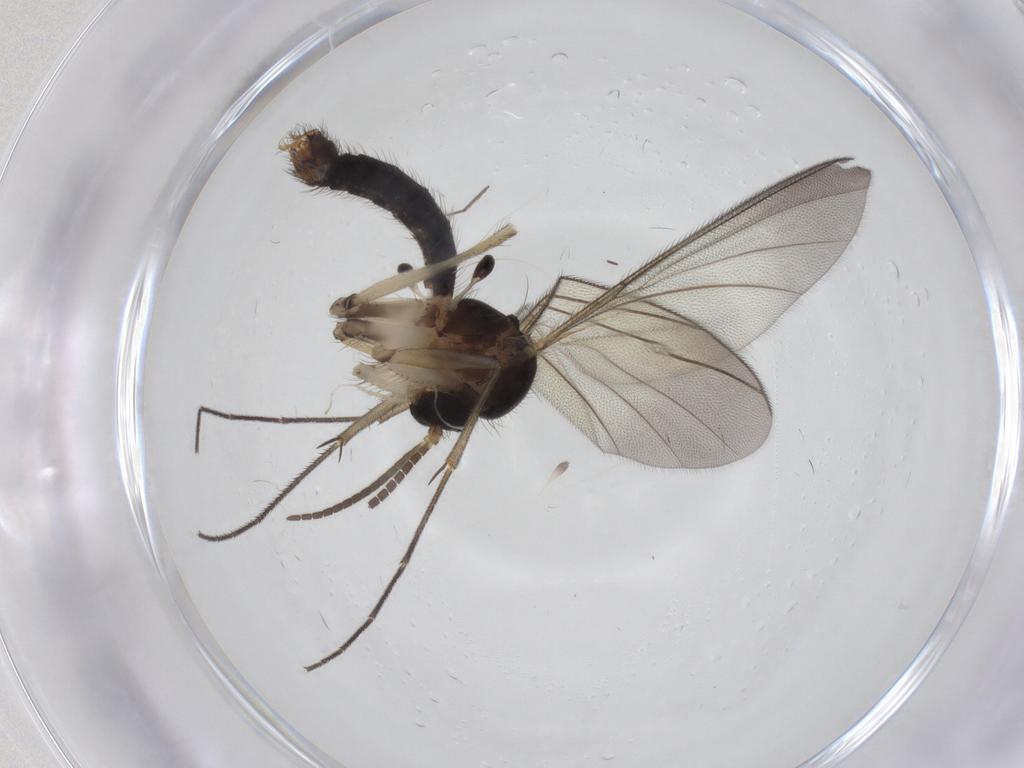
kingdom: Animalia
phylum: Arthropoda
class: Insecta
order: Diptera
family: Mycetophilidae
